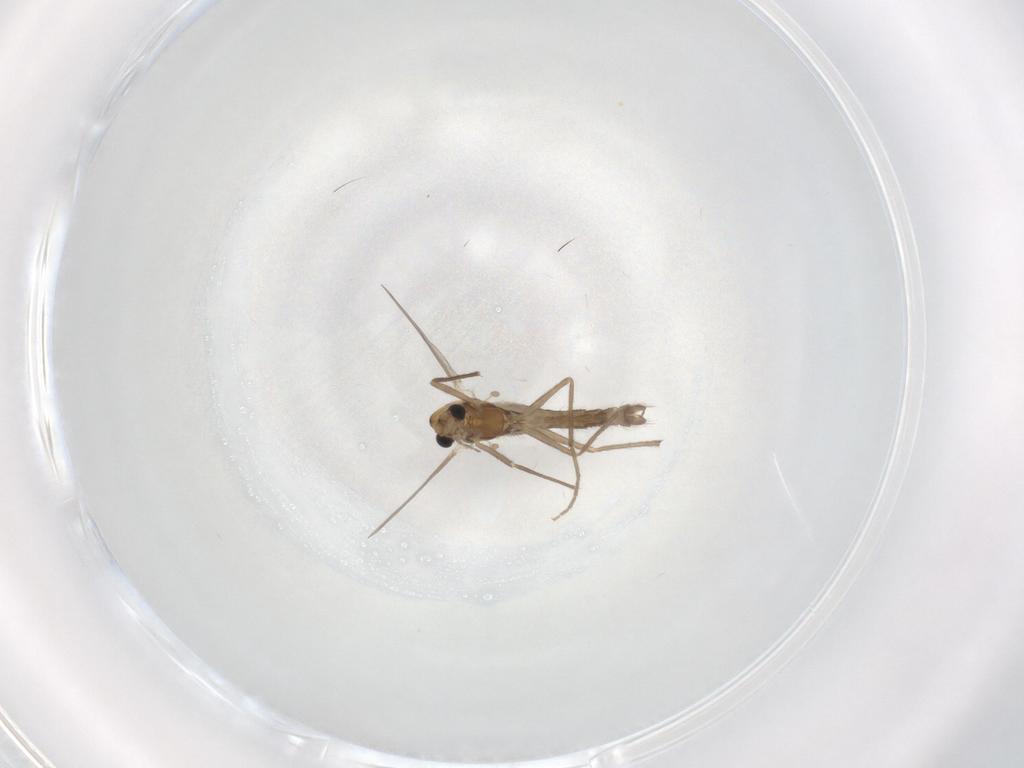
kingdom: Animalia
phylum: Arthropoda
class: Insecta
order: Diptera
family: Chironomidae
